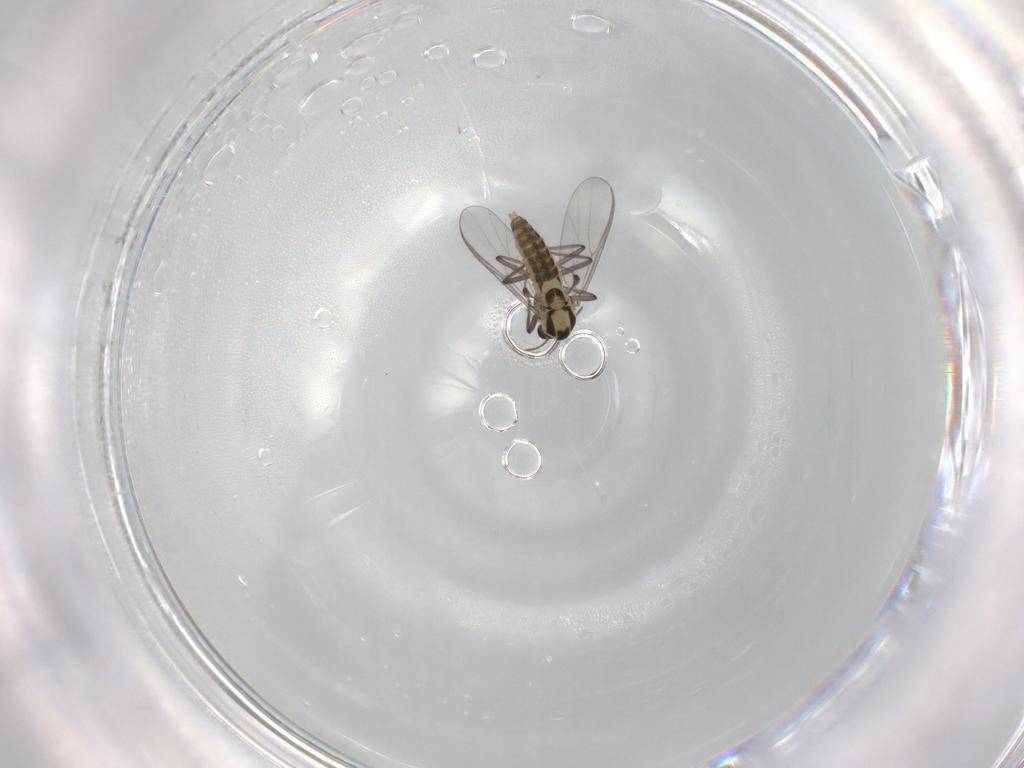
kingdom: Animalia
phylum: Arthropoda
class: Insecta
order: Diptera
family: Chironomidae
